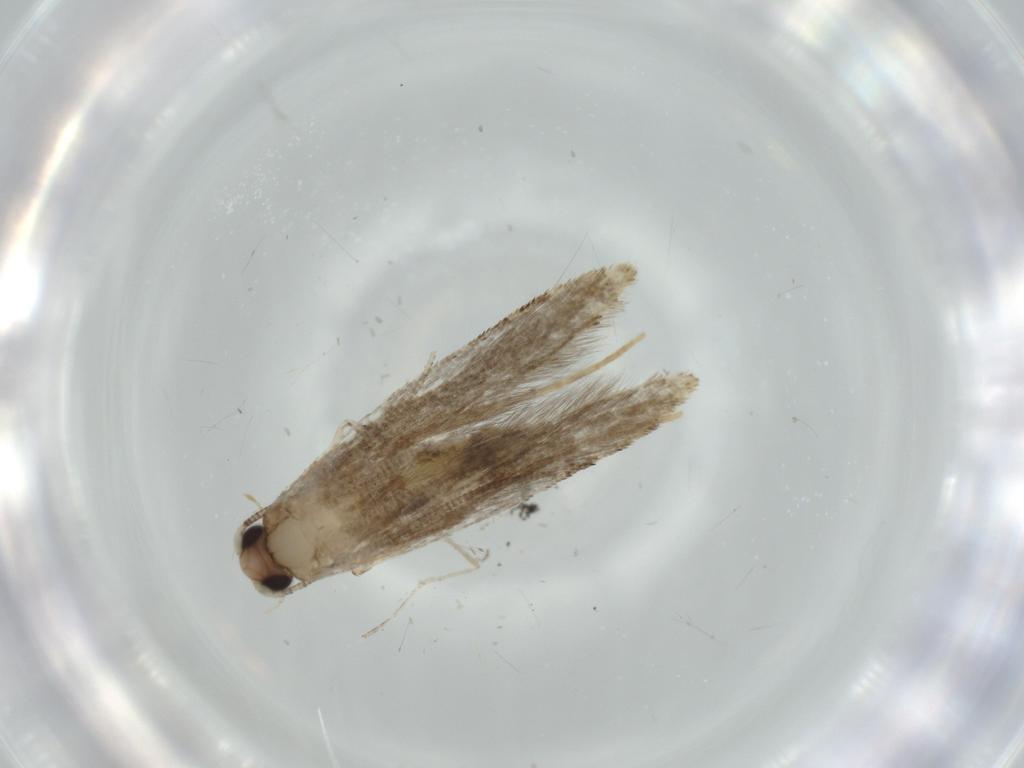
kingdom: Animalia
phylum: Arthropoda
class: Insecta
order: Lepidoptera
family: Tineidae
